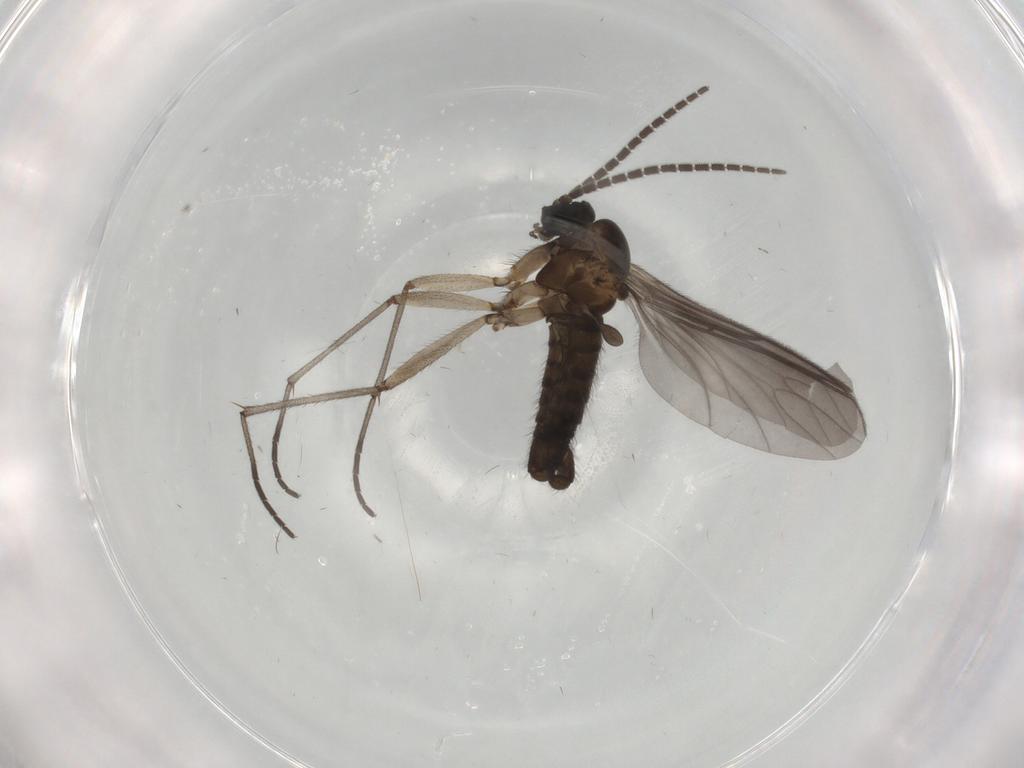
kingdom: Animalia
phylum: Arthropoda
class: Insecta
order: Diptera
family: Sciaridae
